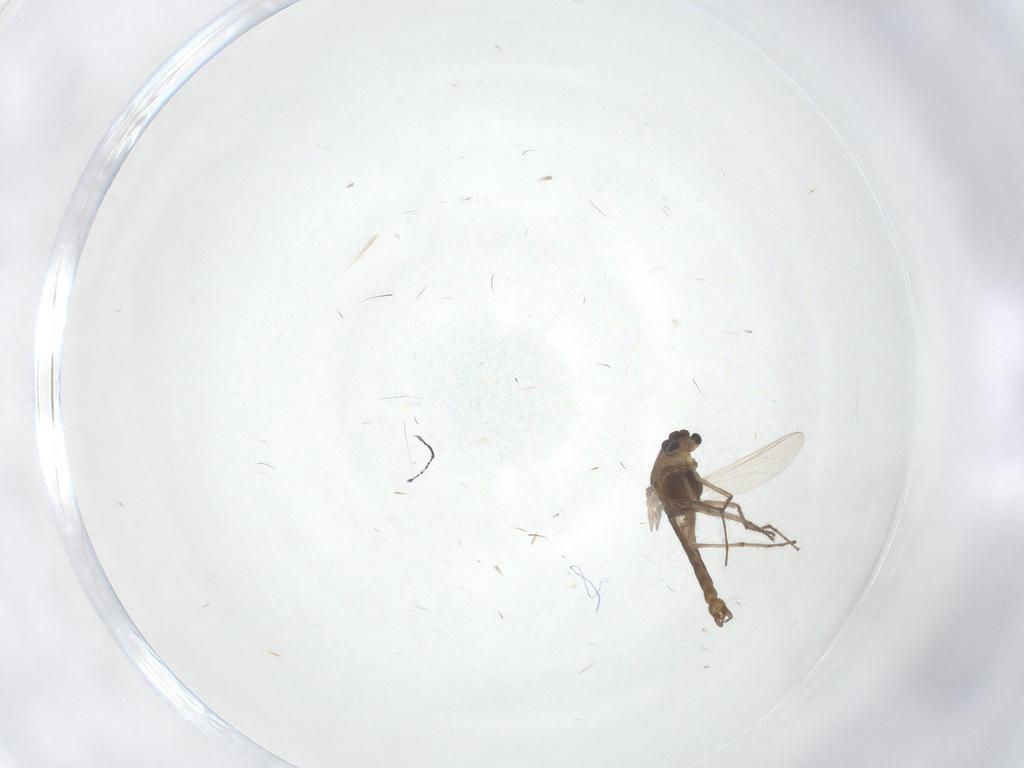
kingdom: Animalia
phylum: Arthropoda
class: Insecta
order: Diptera
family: Chironomidae
